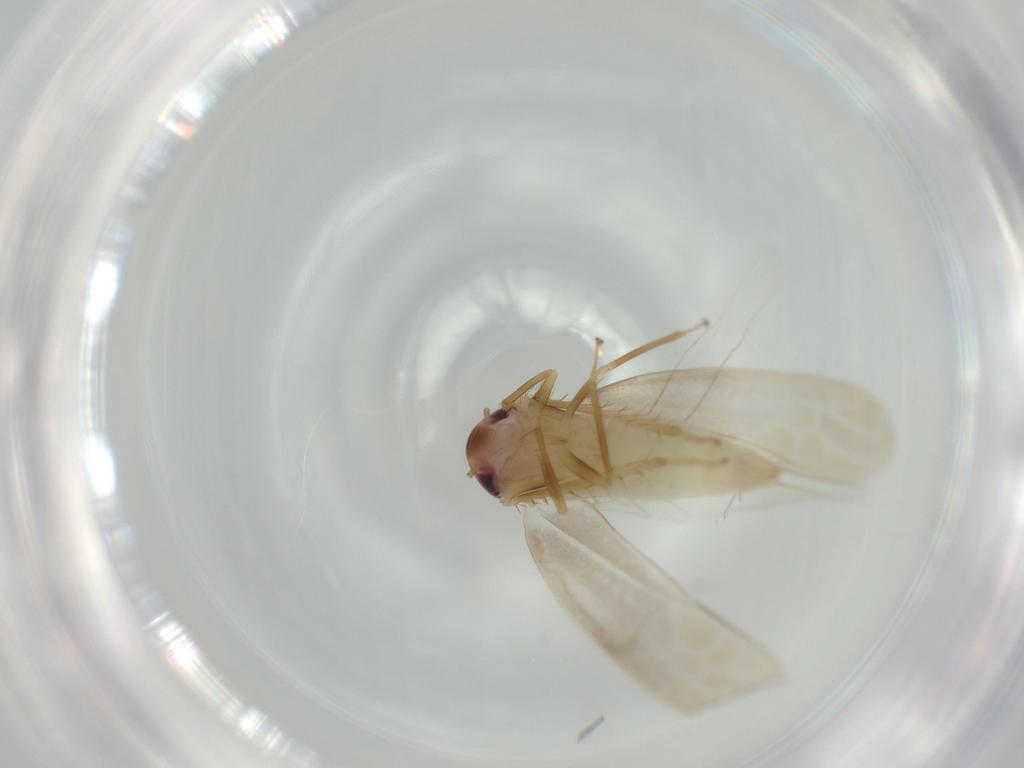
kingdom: Animalia
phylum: Arthropoda
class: Insecta
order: Hemiptera
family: Cicadellidae
